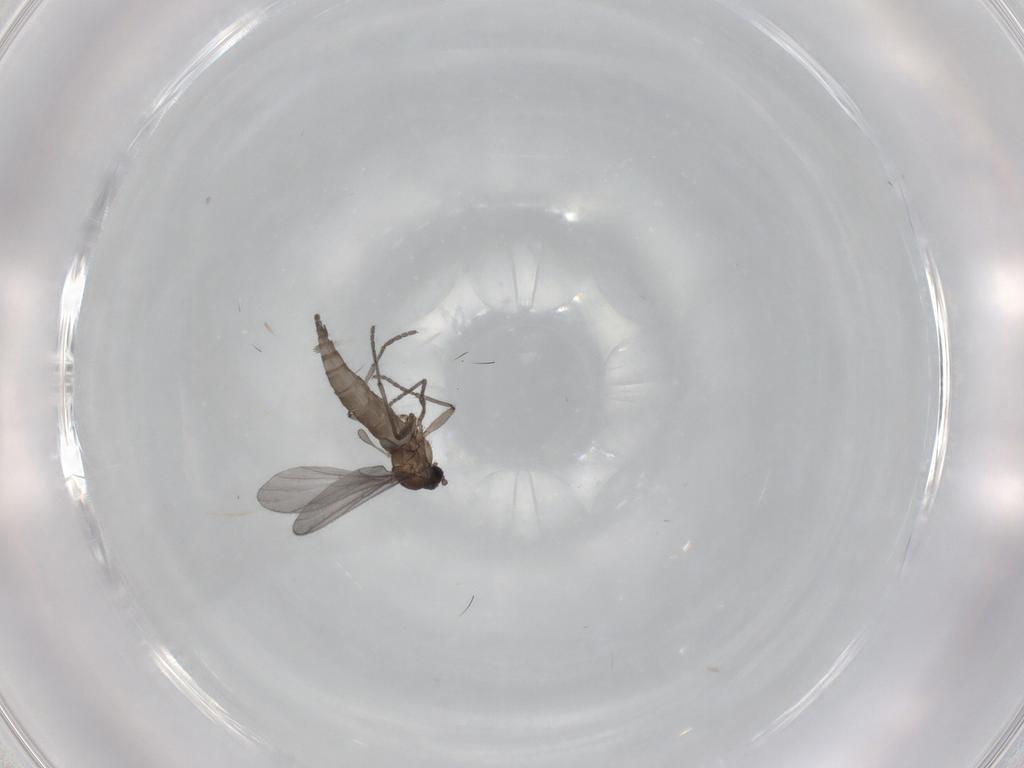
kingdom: Animalia
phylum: Arthropoda
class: Insecta
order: Diptera
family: Sciaridae
